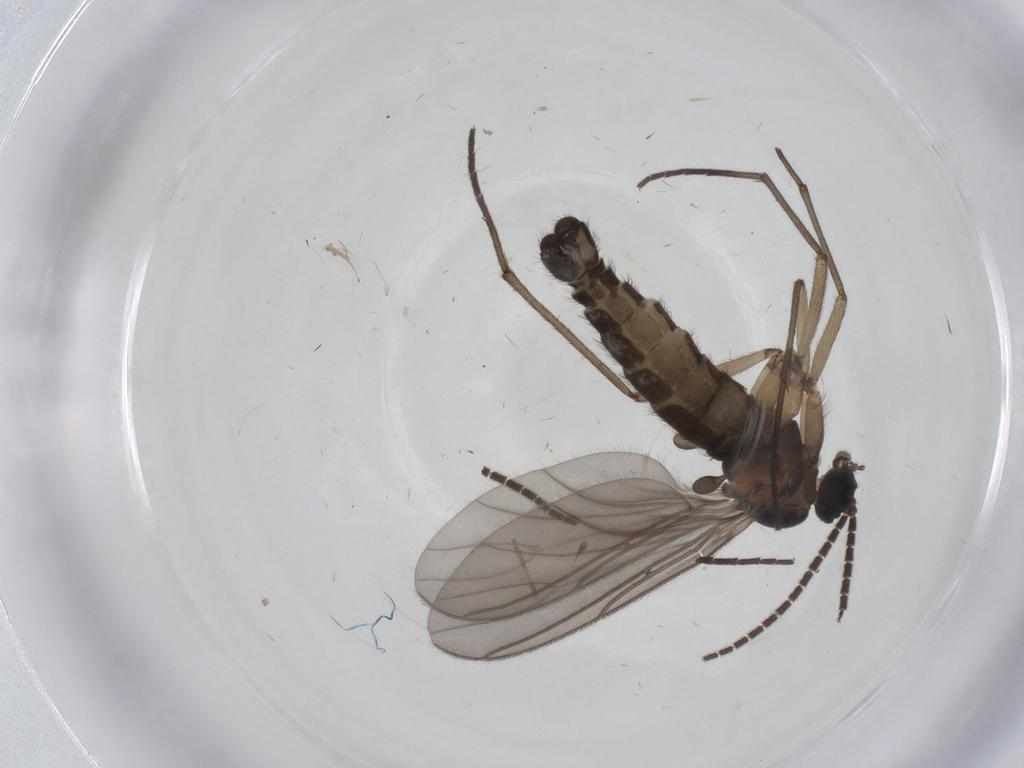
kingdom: Animalia
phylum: Arthropoda
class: Insecta
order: Diptera
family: Sciaridae
